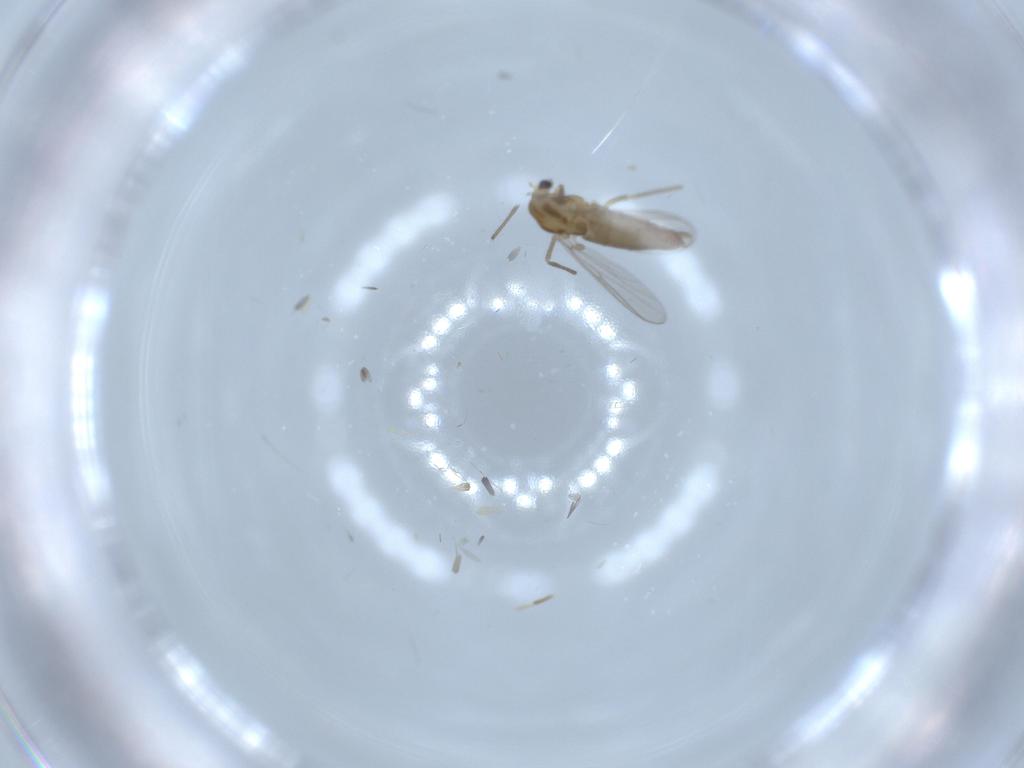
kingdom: Animalia
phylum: Arthropoda
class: Insecta
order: Diptera
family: Chironomidae
